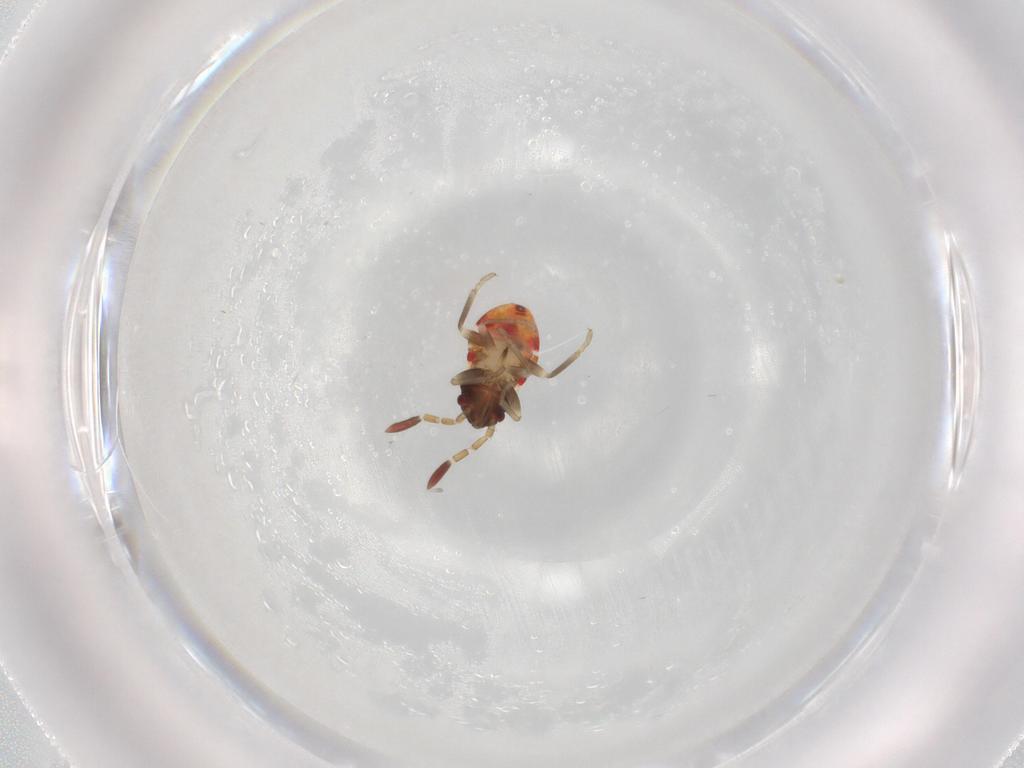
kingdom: Animalia
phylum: Arthropoda
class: Insecta
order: Hemiptera
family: Rhyparochromidae
